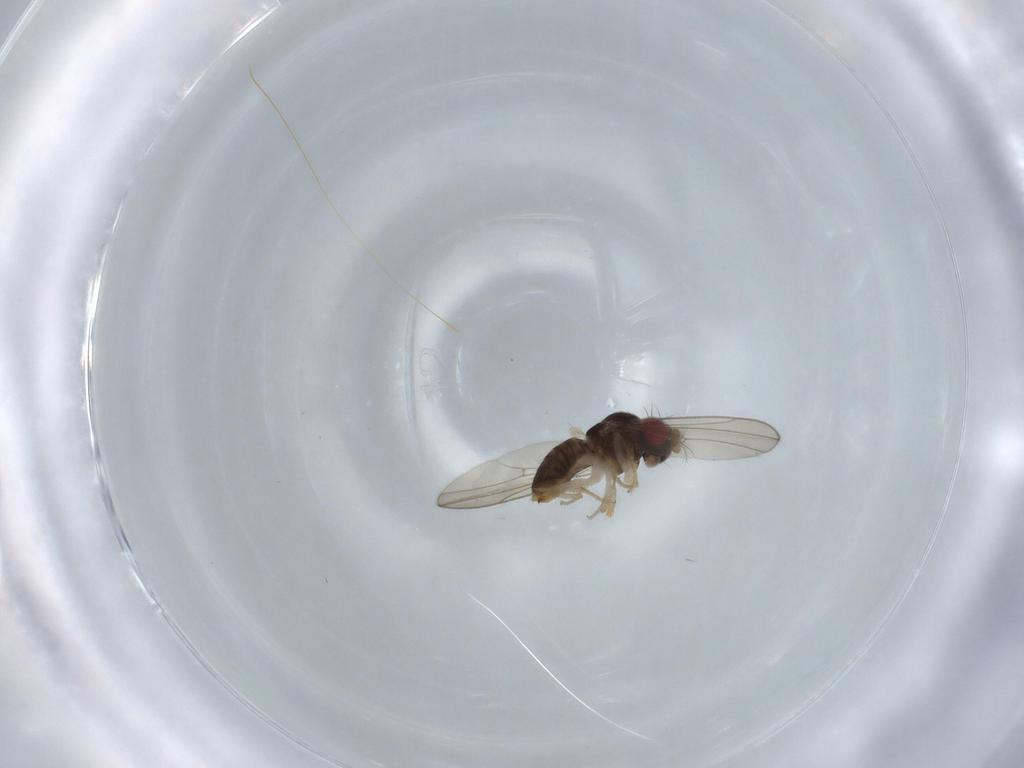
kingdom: Animalia
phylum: Arthropoda
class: Insecta
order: Diptera
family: Drosophilidae
